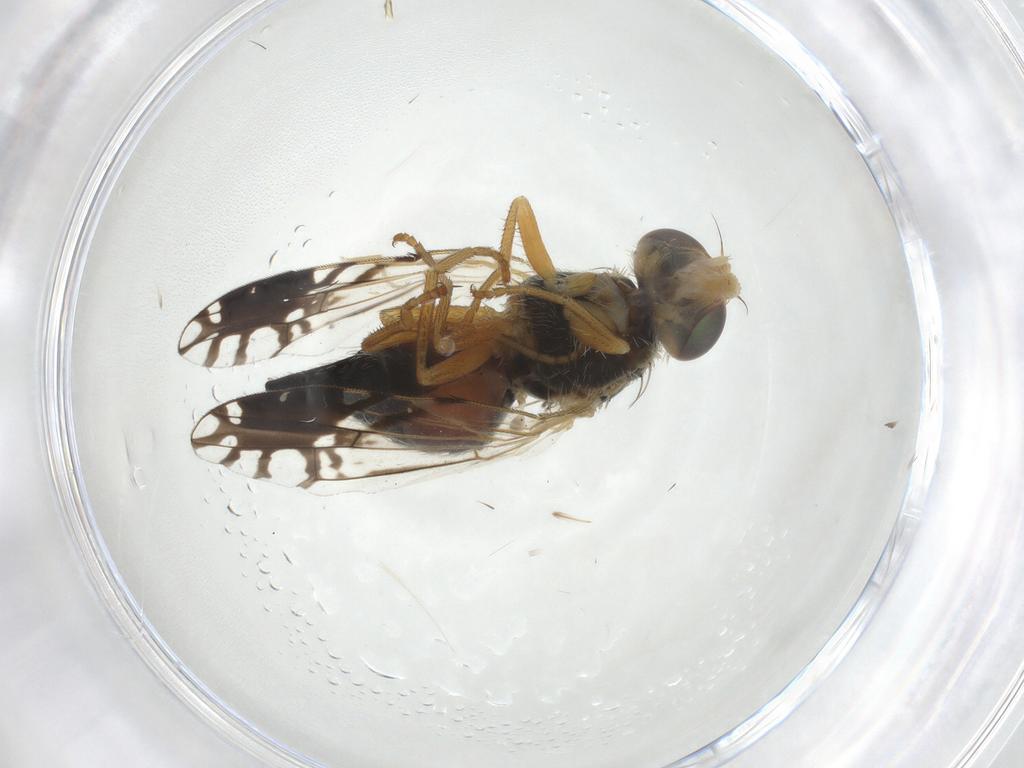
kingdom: Animalia
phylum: Arthropoda
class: Insecta
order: Diptera
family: Tephritidae
